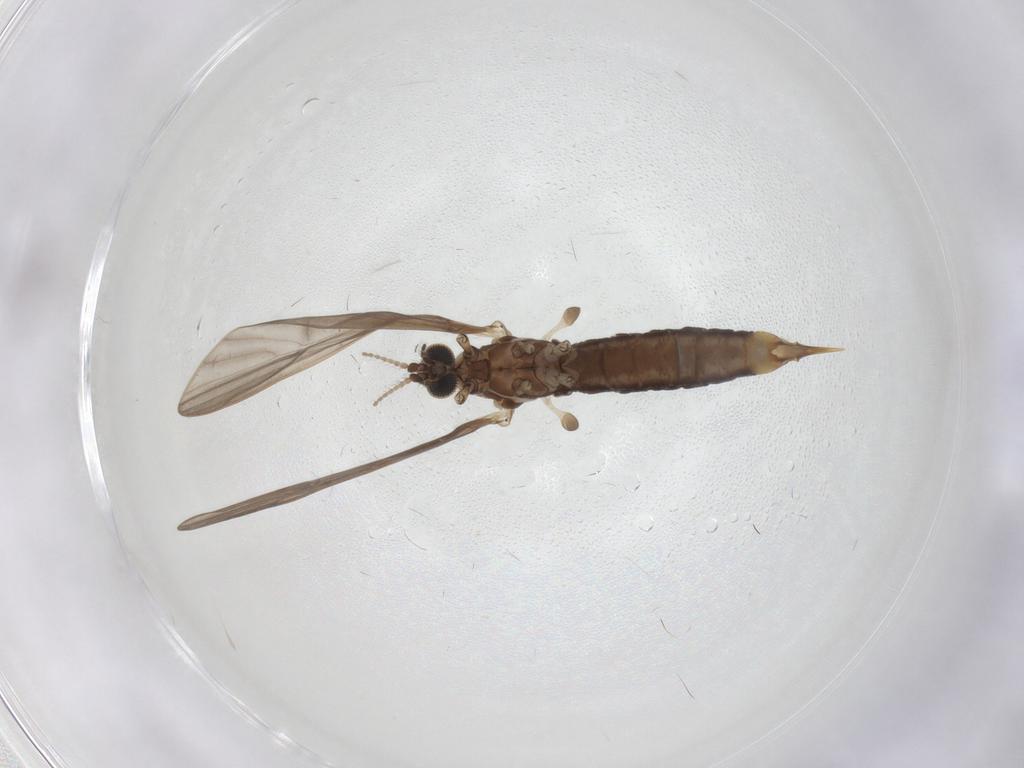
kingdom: Animalia
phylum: Arthropoda
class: Insecta
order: Diptera
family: Limoniidae
